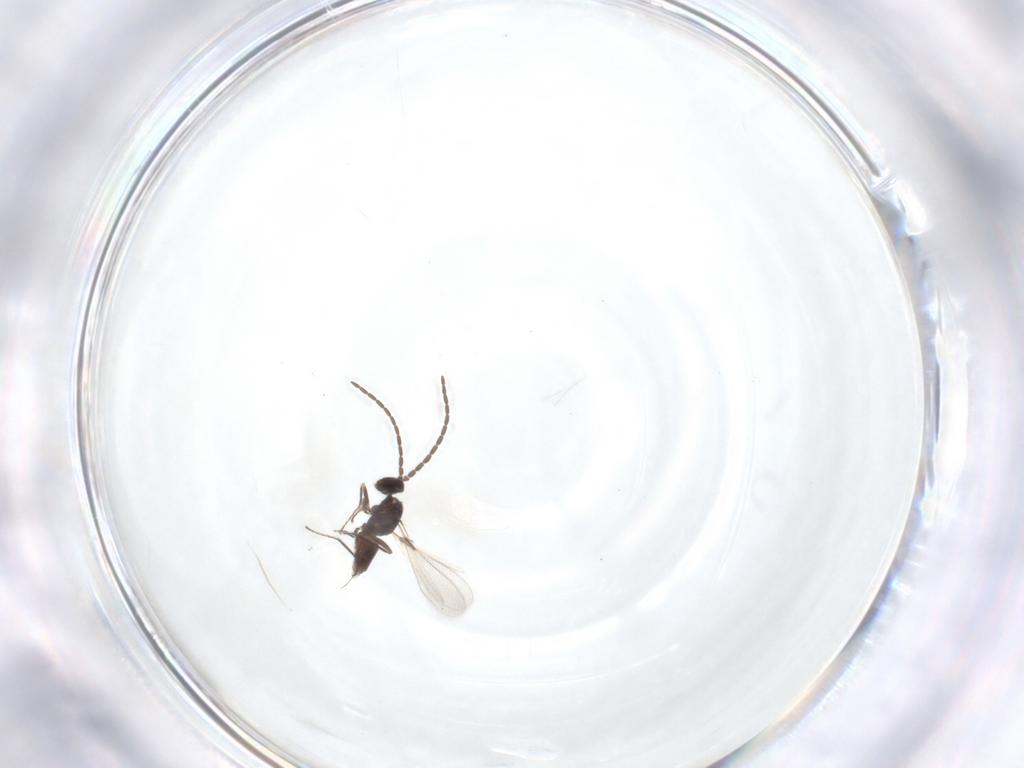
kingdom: Animalia
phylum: Arthropoda
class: Insecta
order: Hymenoptera
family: Mymaridae
